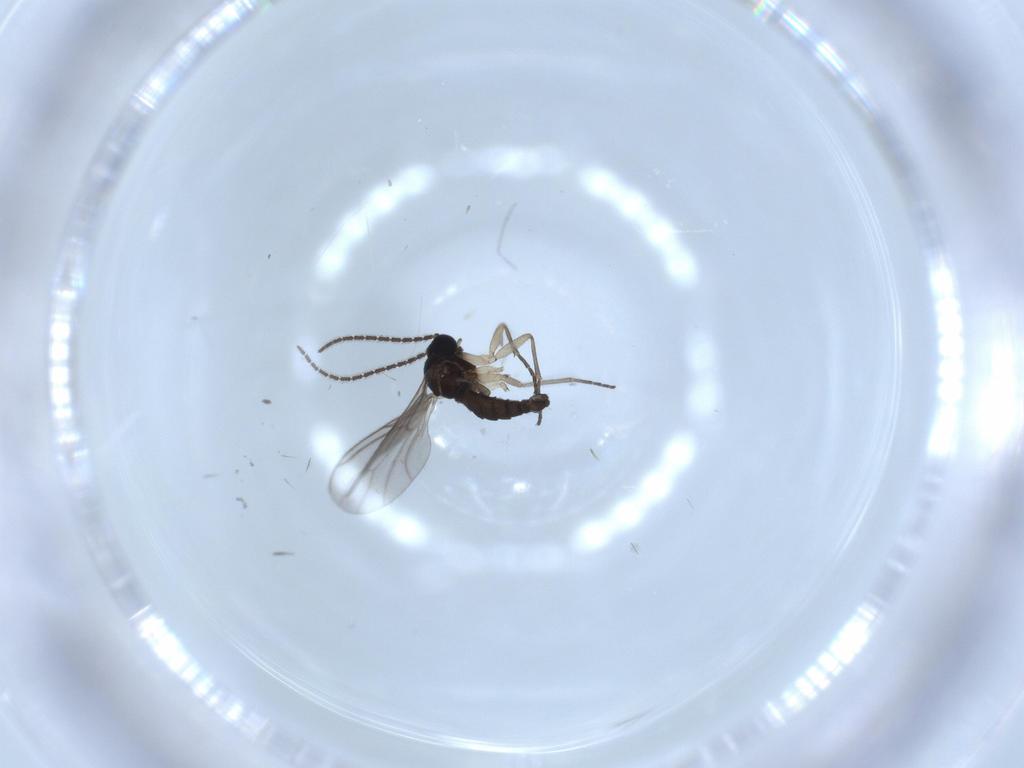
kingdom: Animalia
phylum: Arthropoda
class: Insecta
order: Diptera
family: Sciaridae
